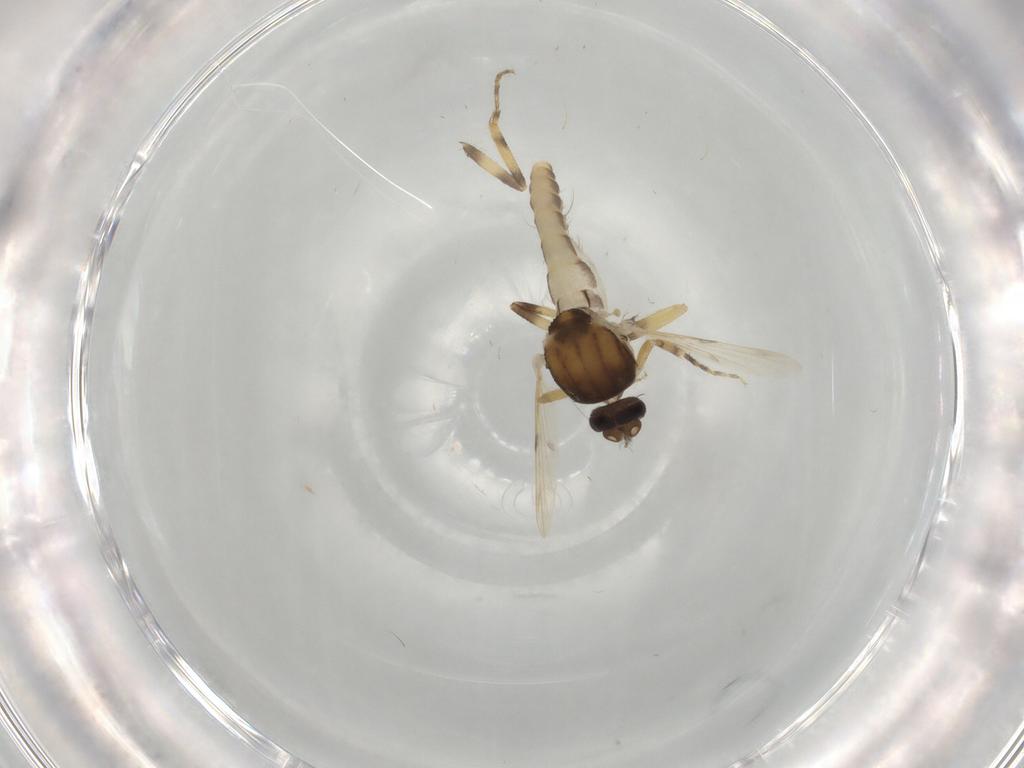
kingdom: Animalia
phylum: Arthropoda
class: Insecta
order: Diptera
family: Ceratopogonidae
